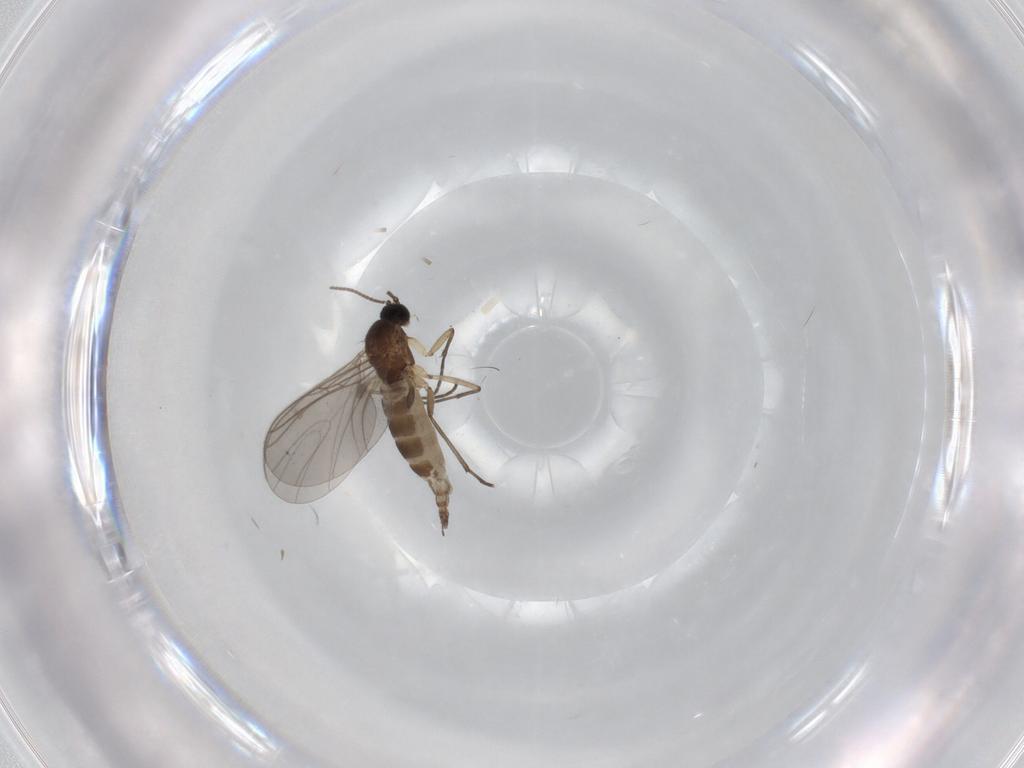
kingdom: Animalia
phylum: Arthropoda
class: Insecta
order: Diptera
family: Sciaridae
